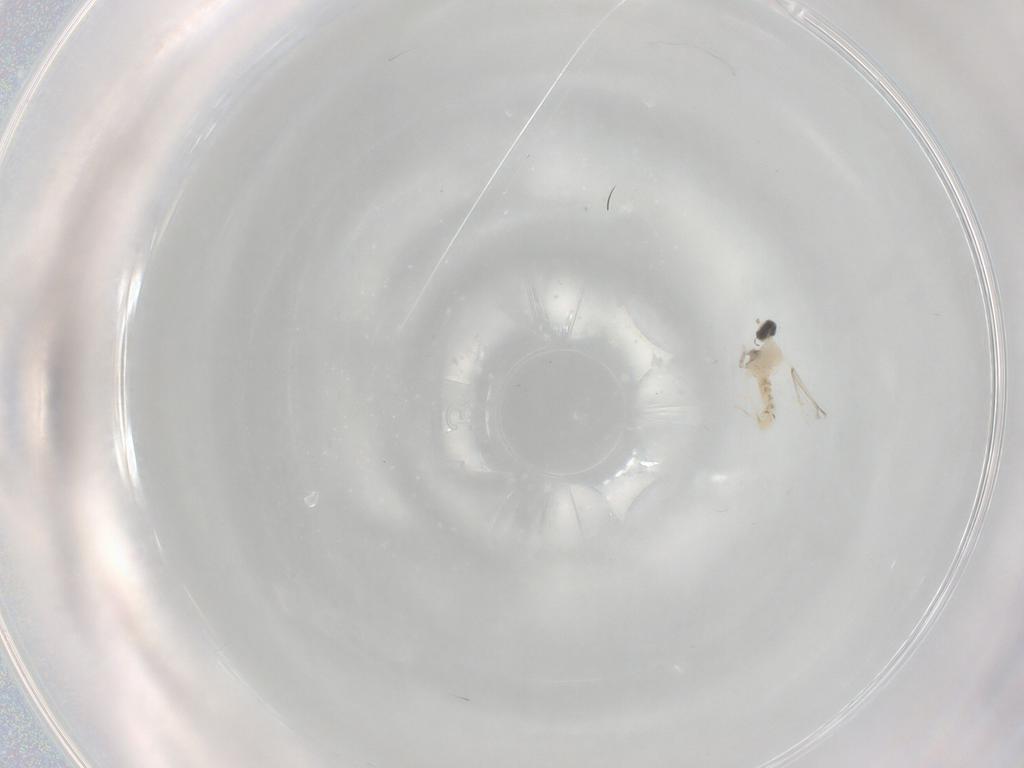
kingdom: Animalia
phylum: Arthropoda
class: Insecta
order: Diptera
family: Cecidomyiidae
